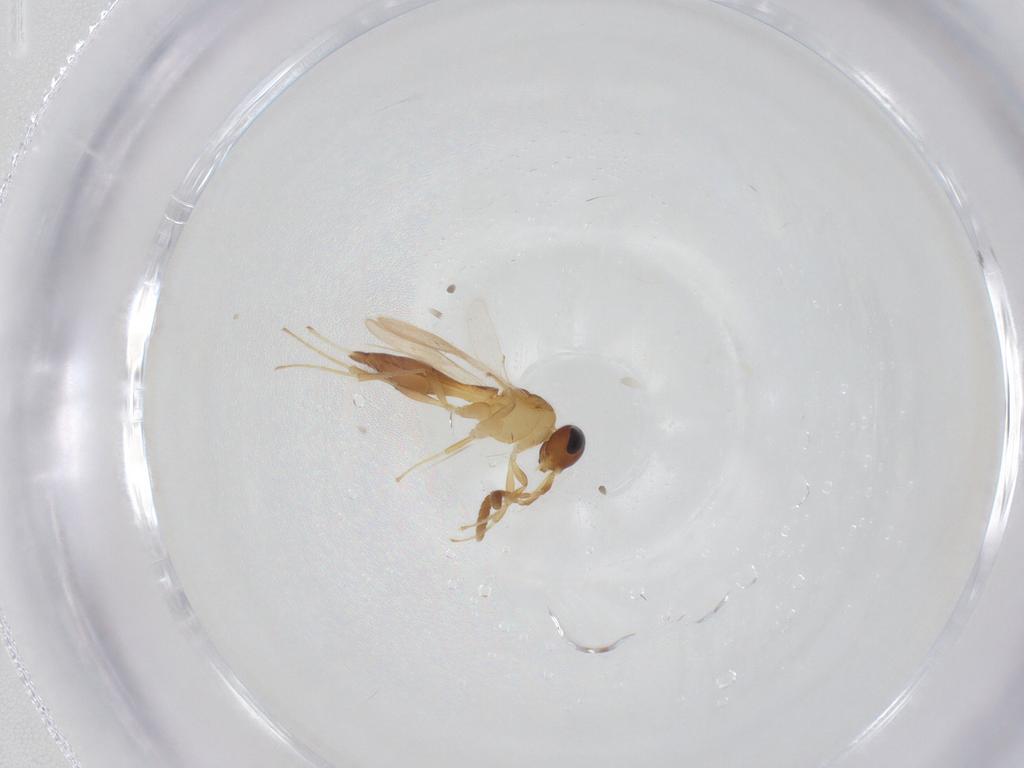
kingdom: Animalia
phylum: Arthropoda
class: Insecta
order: Hymenoptera
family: Scelionidae
